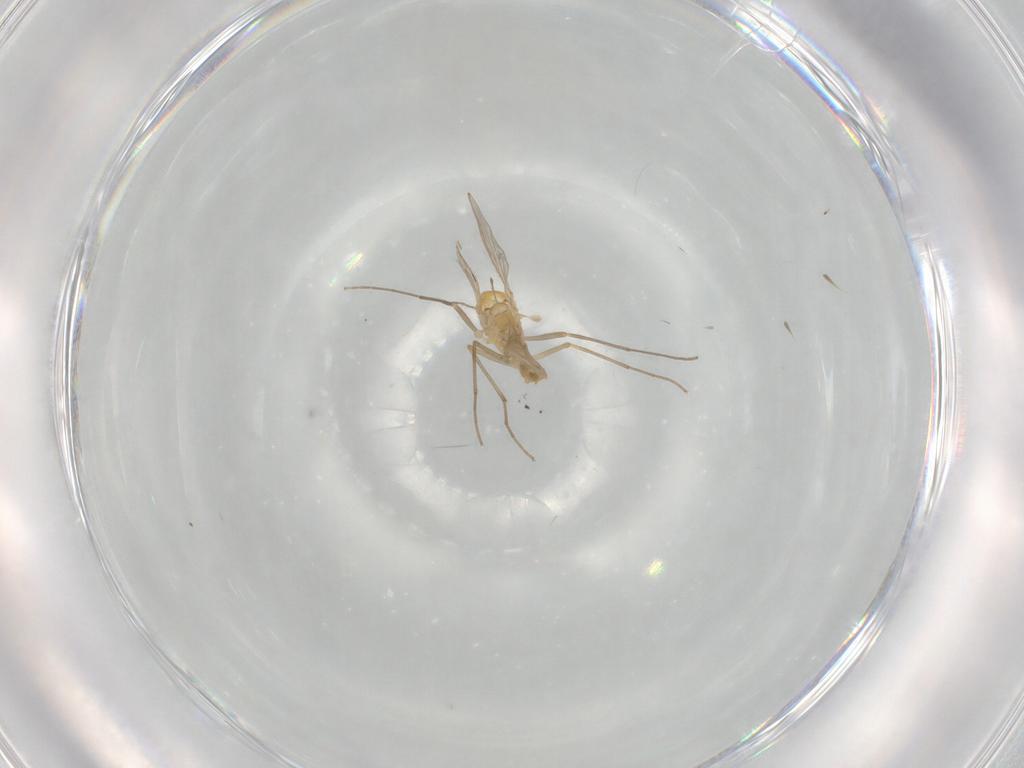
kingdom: Animalia
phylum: Arthropoda
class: Insecta
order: Diptera
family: Chironomidae
